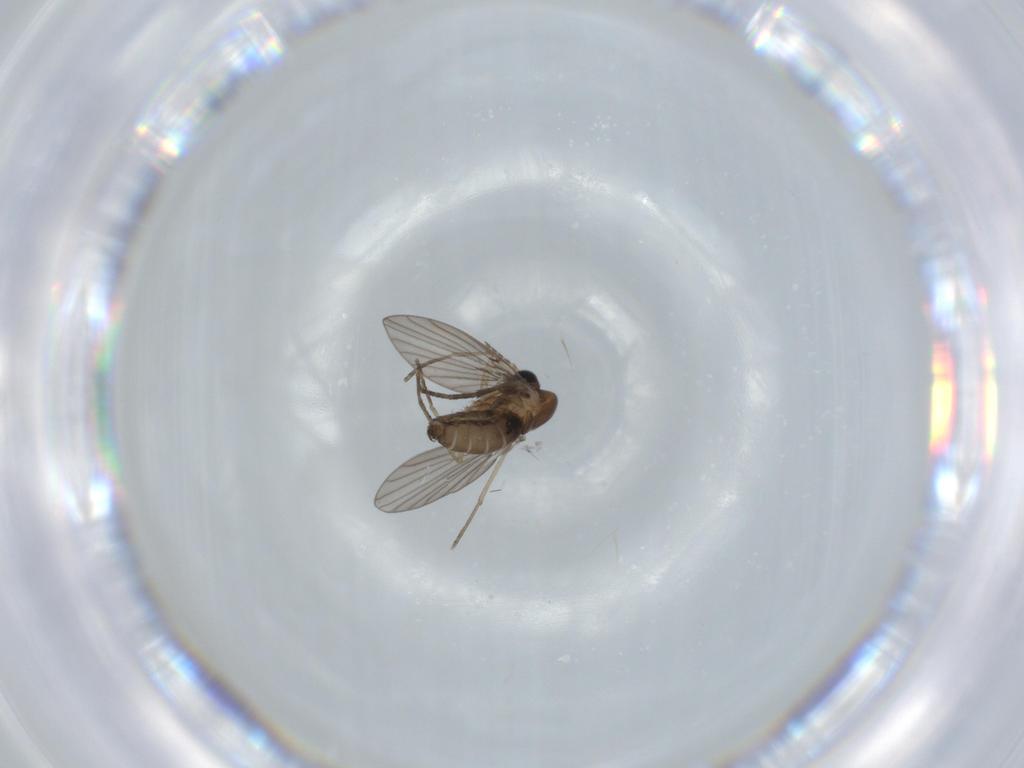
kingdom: Animalia
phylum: Arthropoda
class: Insecta
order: Diptera
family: Psychodidae
